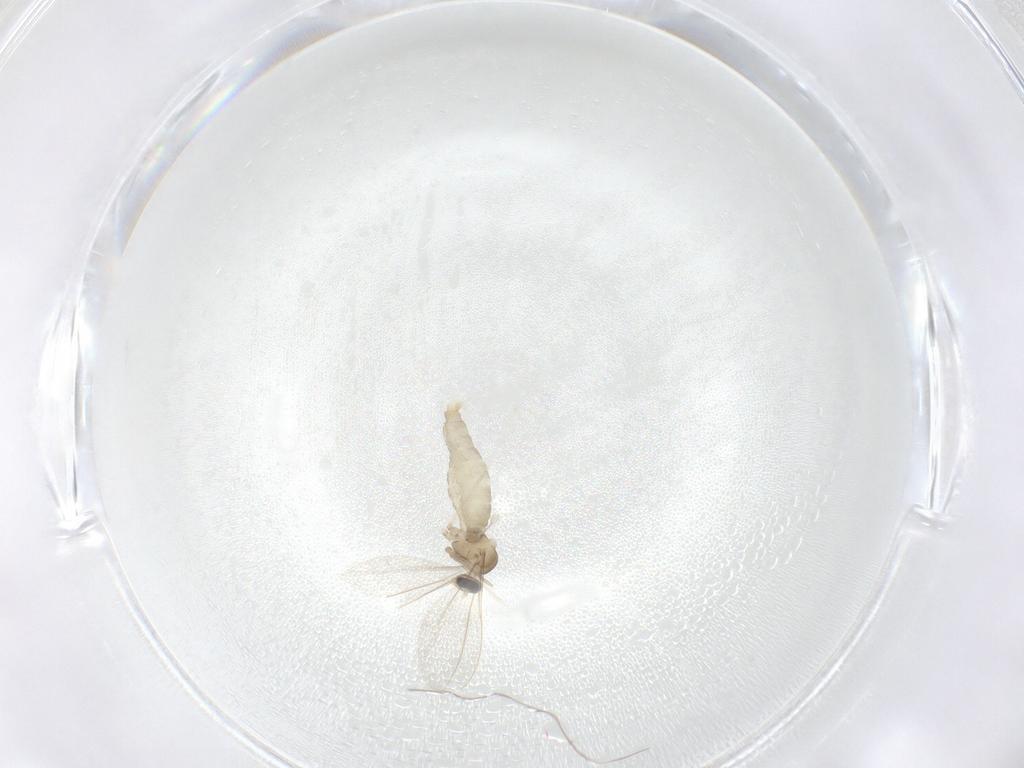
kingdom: Animalia
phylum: Arthropoda
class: Insecta
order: Diptera
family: Cecidomyiidae
